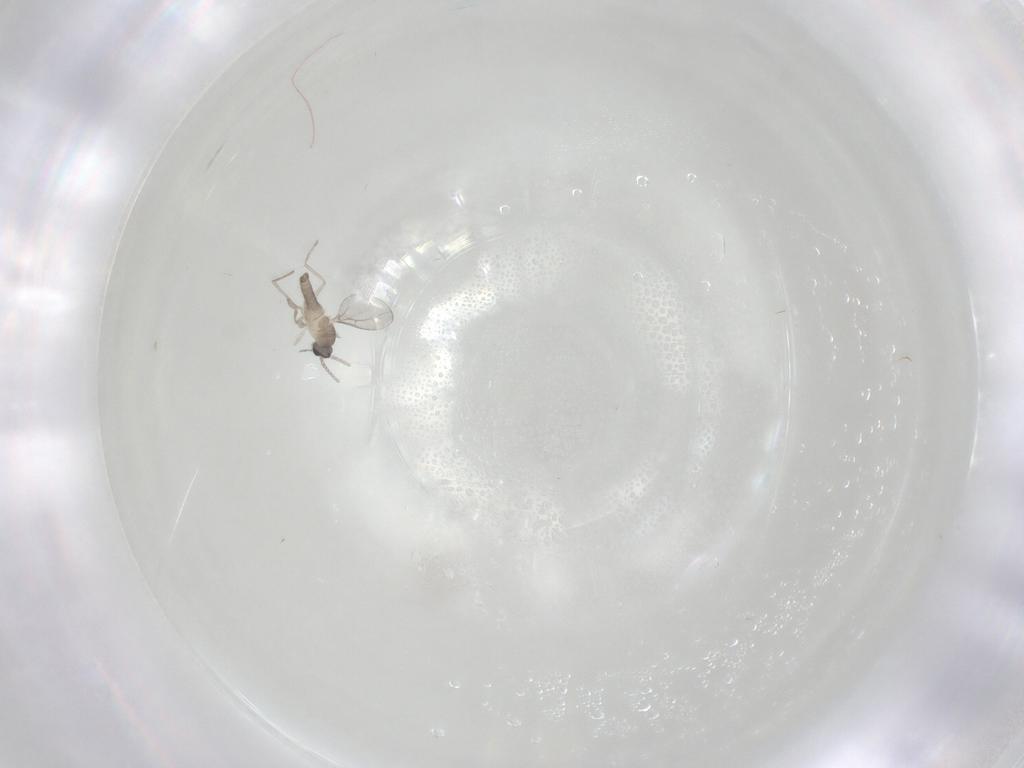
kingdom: Animalia
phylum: Arthropoda
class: Insecta
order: Diptera
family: Cecidomyiidae
